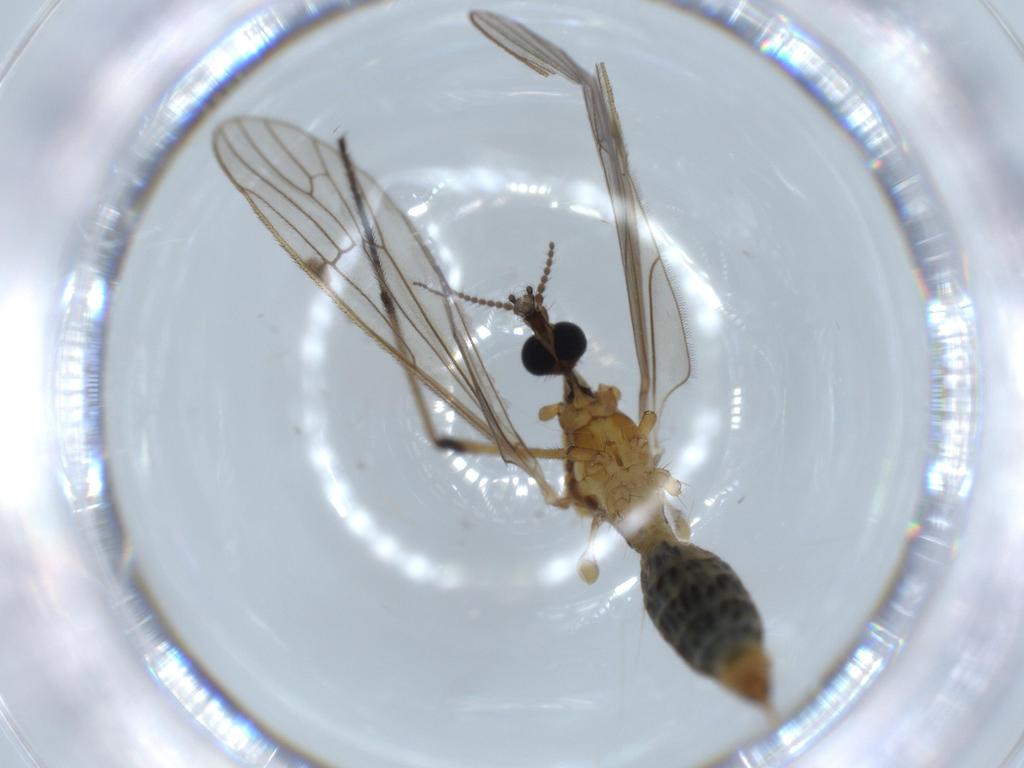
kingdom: Animalia
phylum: Arthropoda
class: Insecta
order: Diptera
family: Limoniidae
